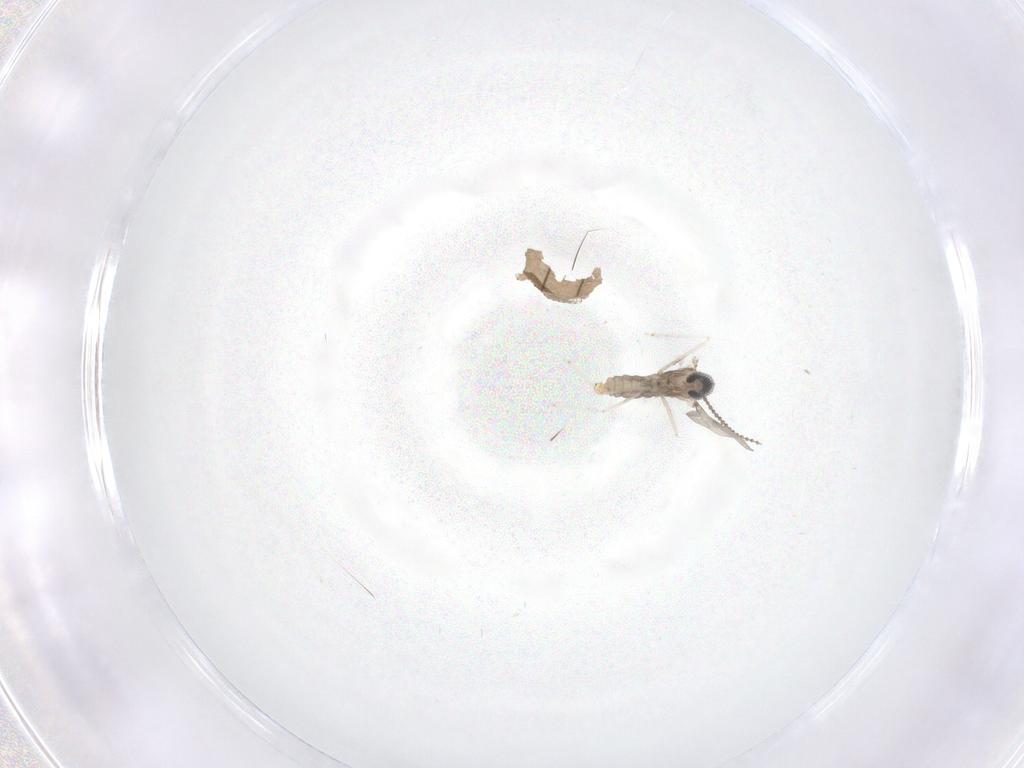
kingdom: Animalia
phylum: Arthropoda
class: Insecta
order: Diptera
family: Cecidomyiidae
